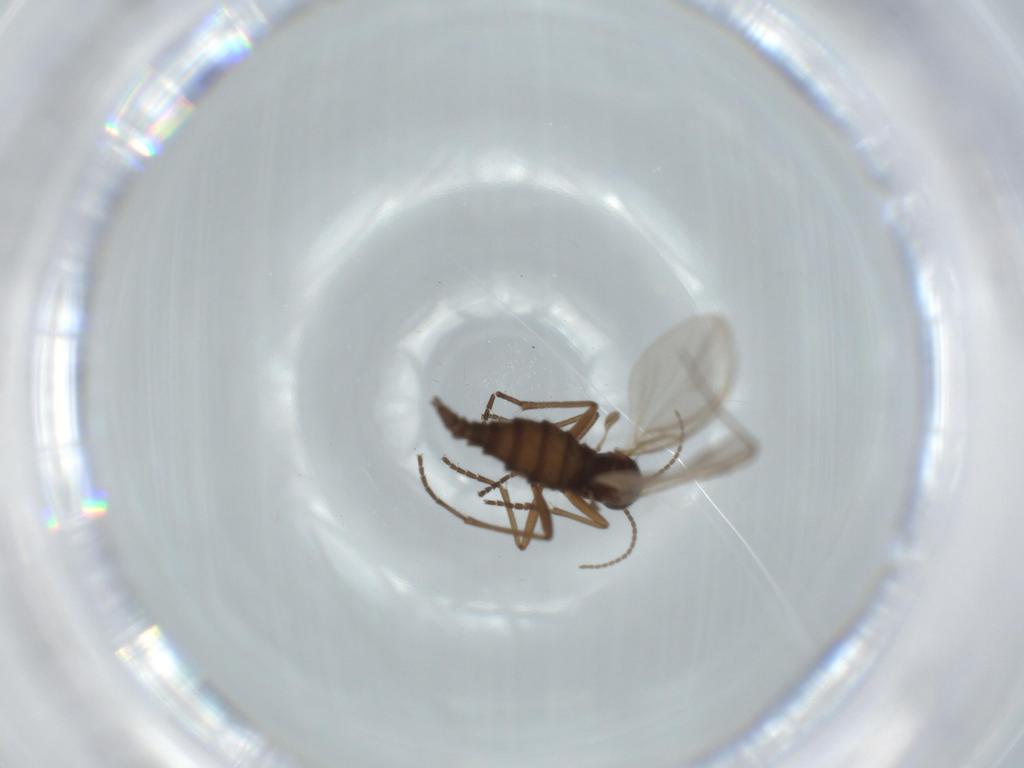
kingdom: Animalia
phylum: Arthropoda
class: Insecta
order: Diptera
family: Sciaridae
